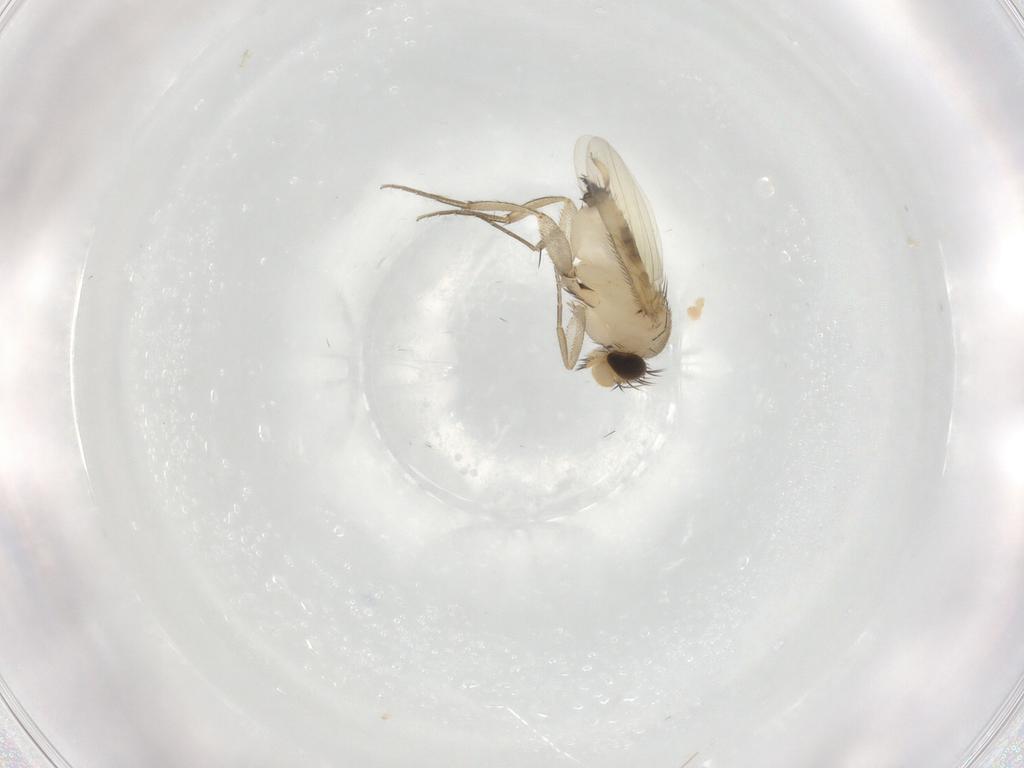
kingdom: Animalia
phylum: Arthropoda
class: Insecta
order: Diptera
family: Phoridae
